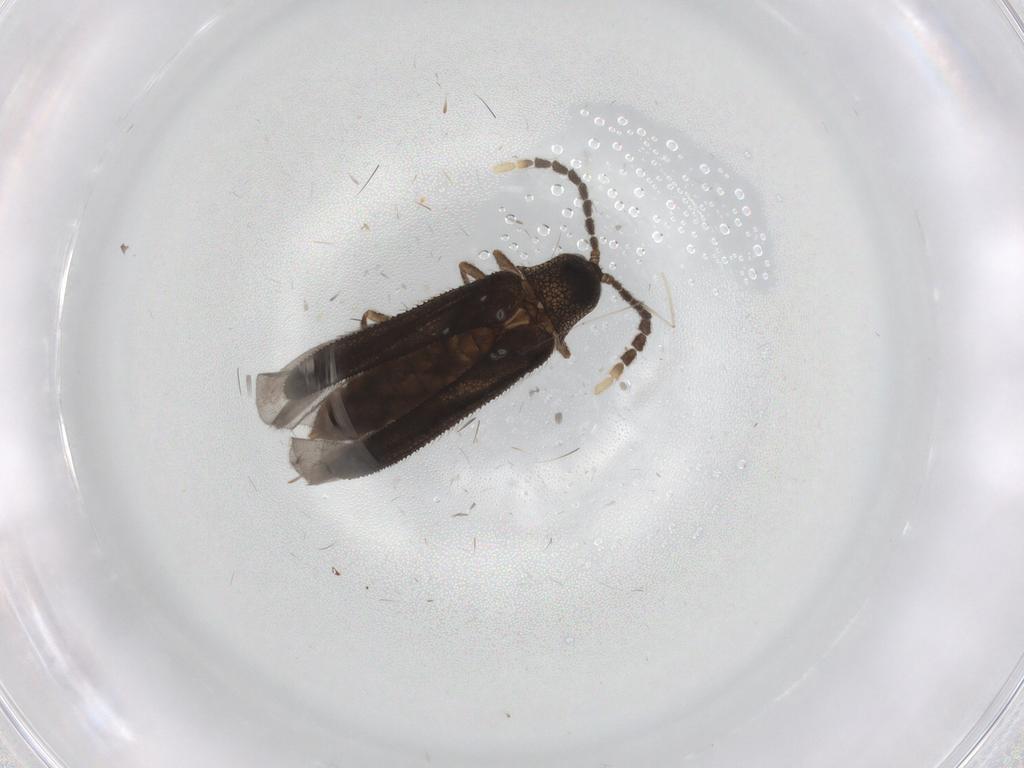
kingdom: Animalia
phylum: Arthropoda
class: Insecta
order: Coleoptera
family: Lycidae
